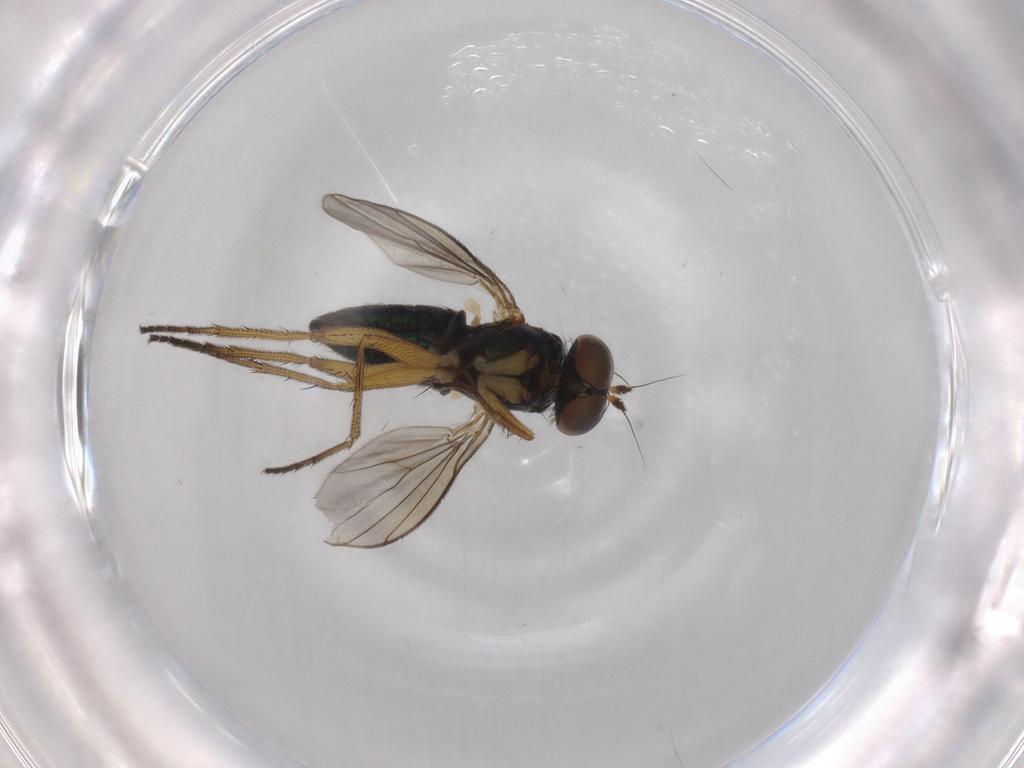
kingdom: Animalia
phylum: Arthropoda
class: Insecta
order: Diptera
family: Dolichopodidae
